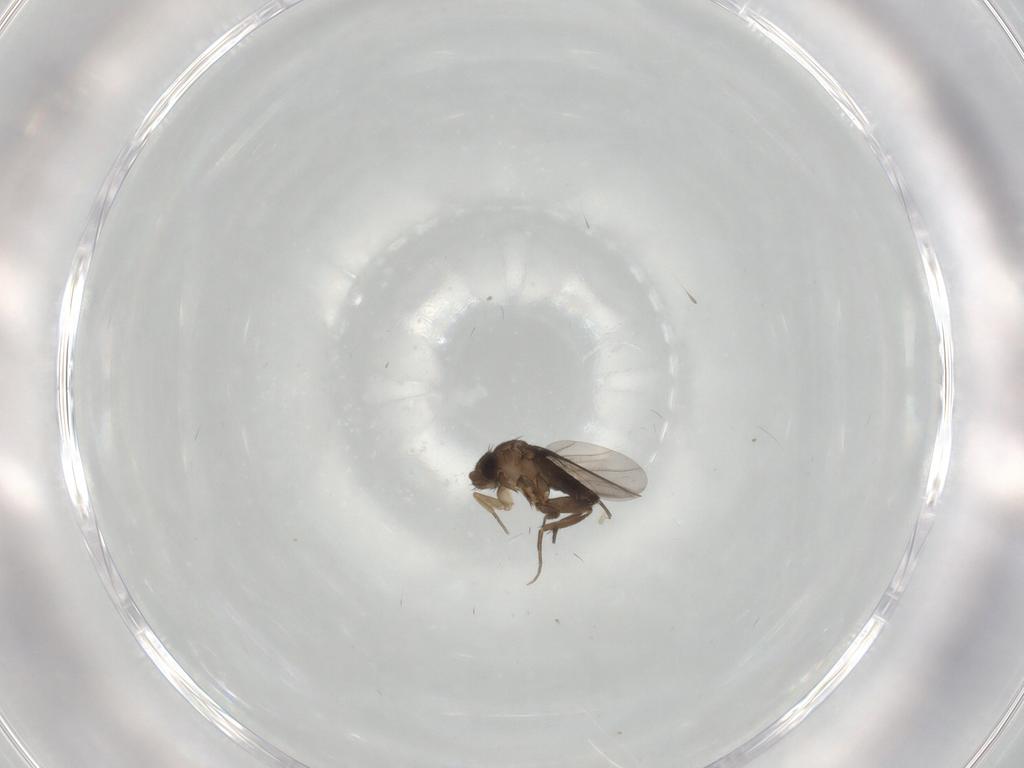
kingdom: Animalia
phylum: Arthropoda
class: Insecta
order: Diptera
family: Phoridae
